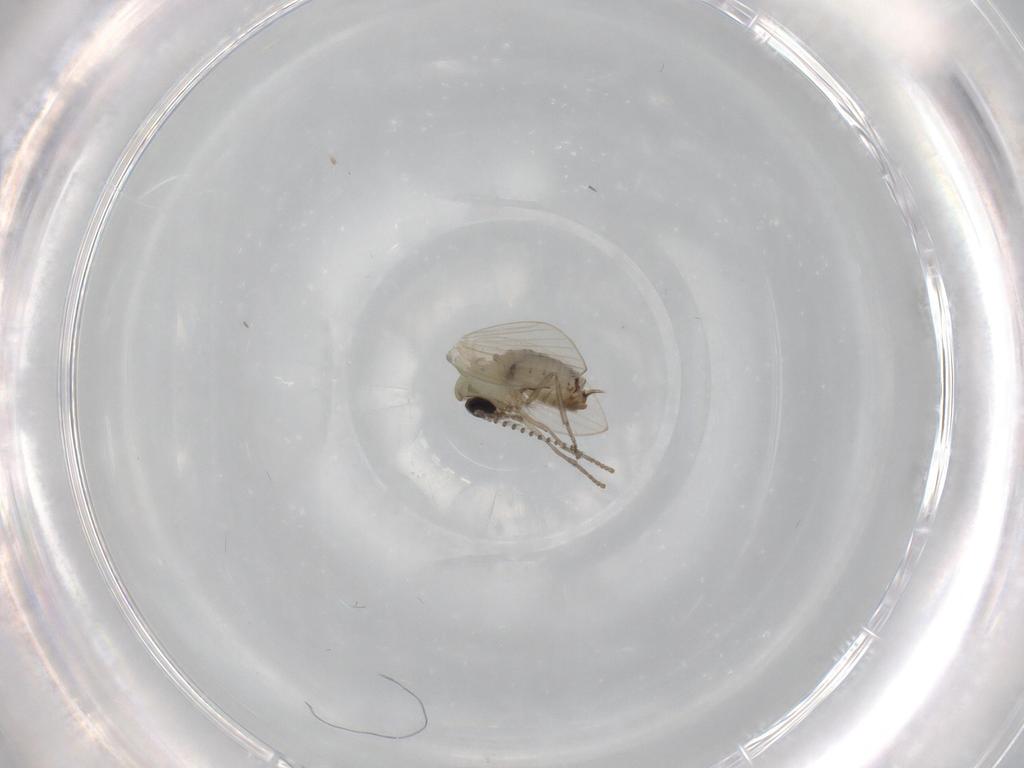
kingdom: Animalia
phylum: Arthropoda
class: Insecta
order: Diptera
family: Psychodidae
